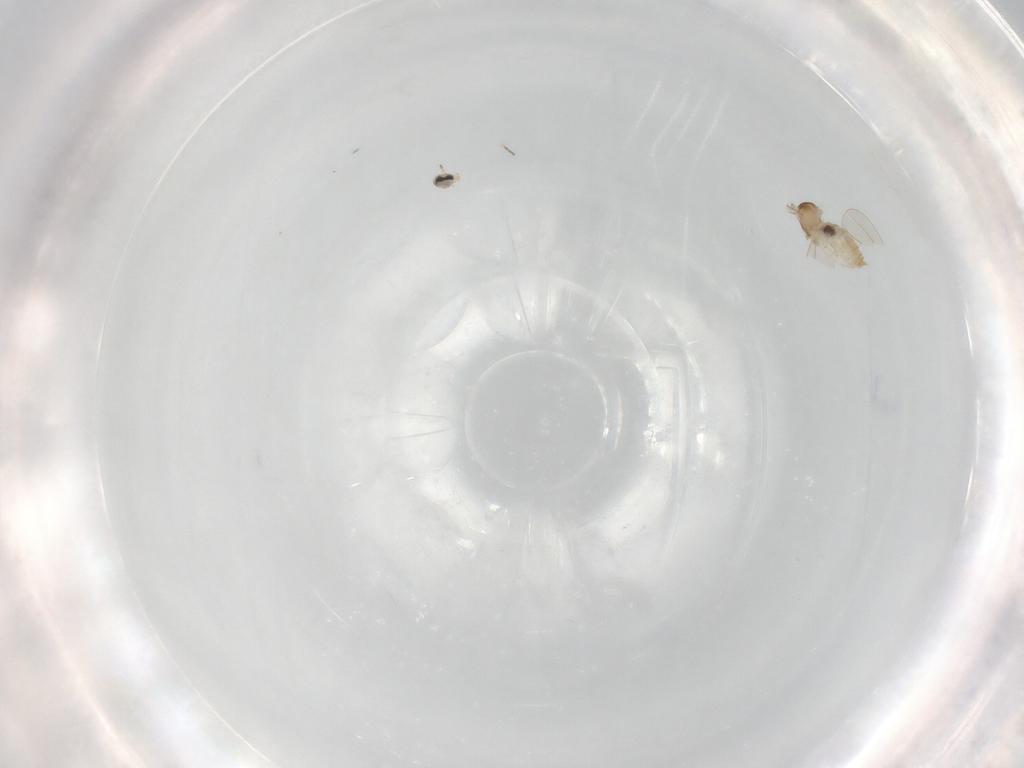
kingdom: Animalia
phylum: Arthropoda
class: Insecta
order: Diptera
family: Cecidomyiidae
